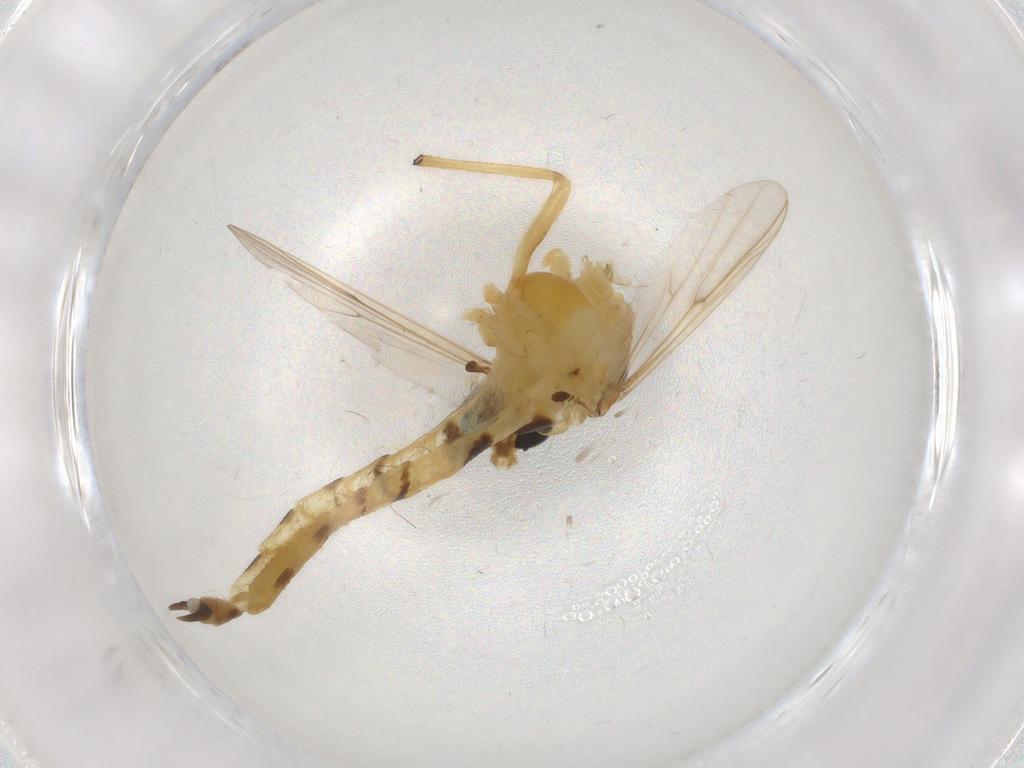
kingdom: Animalia
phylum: Arthropoda
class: Insecta
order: Diptera
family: Chironomidae
